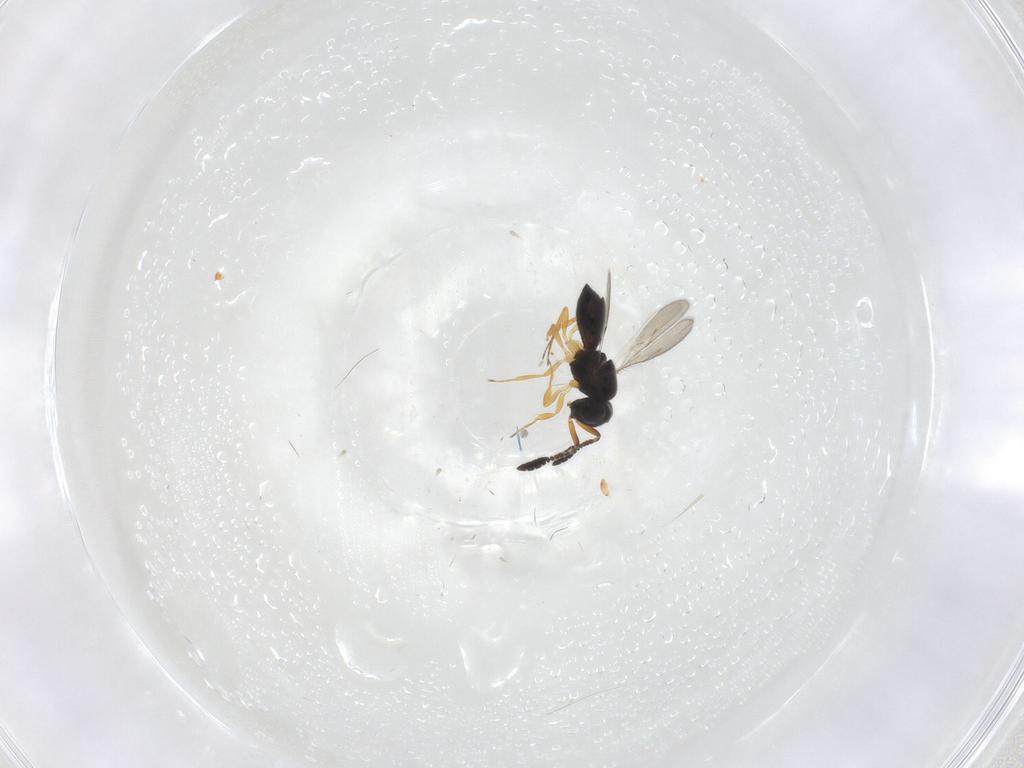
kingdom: Animalia
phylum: Arthropoda
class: Insecta
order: Hymenoptera
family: Scelionidae
